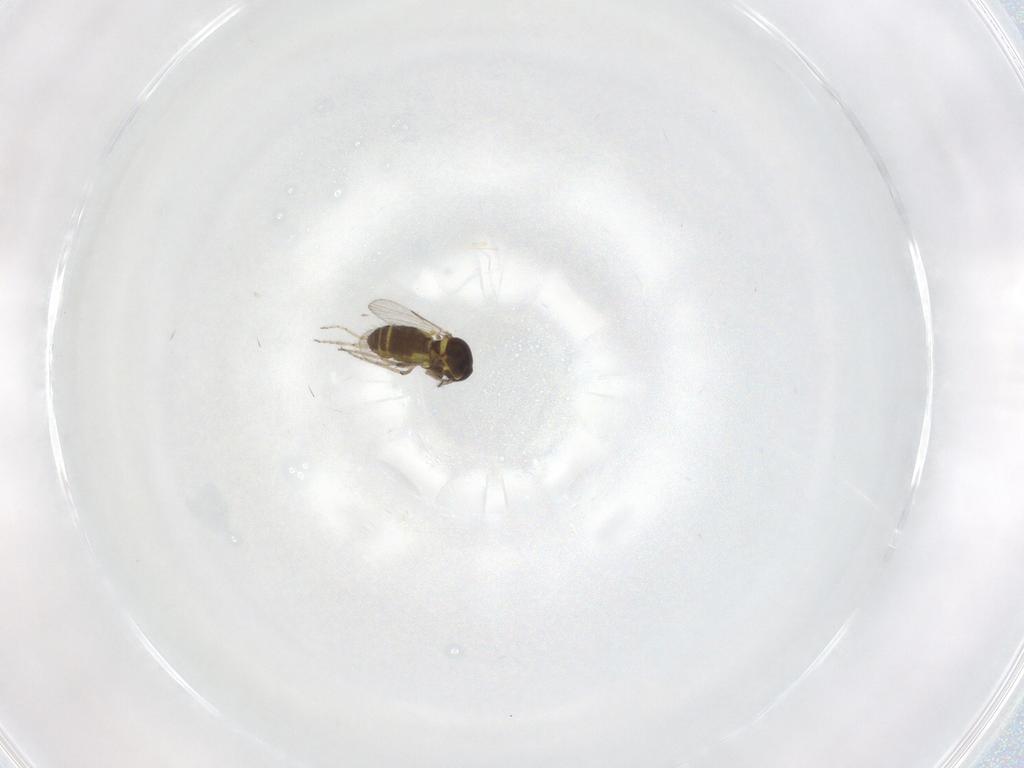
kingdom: Animalia
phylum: Arthropoda
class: Insecta
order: Diptera
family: Ceratopogonidae
